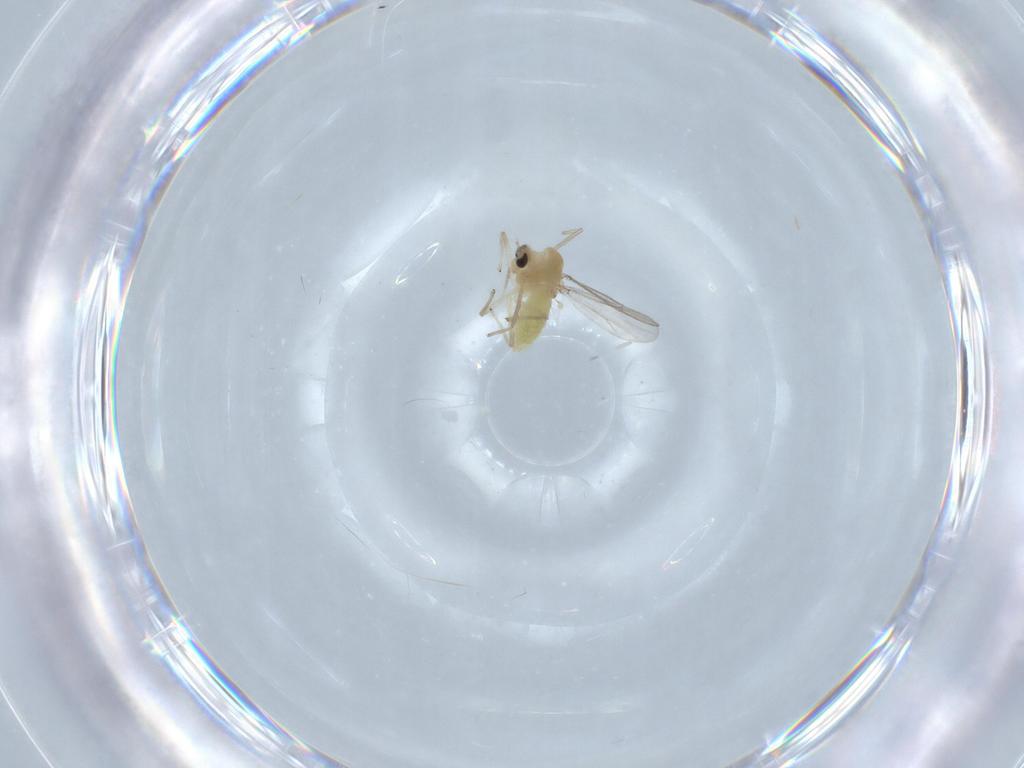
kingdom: Animalia
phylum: Arthropoda
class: Insecta
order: Diptera
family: Chironomidae
